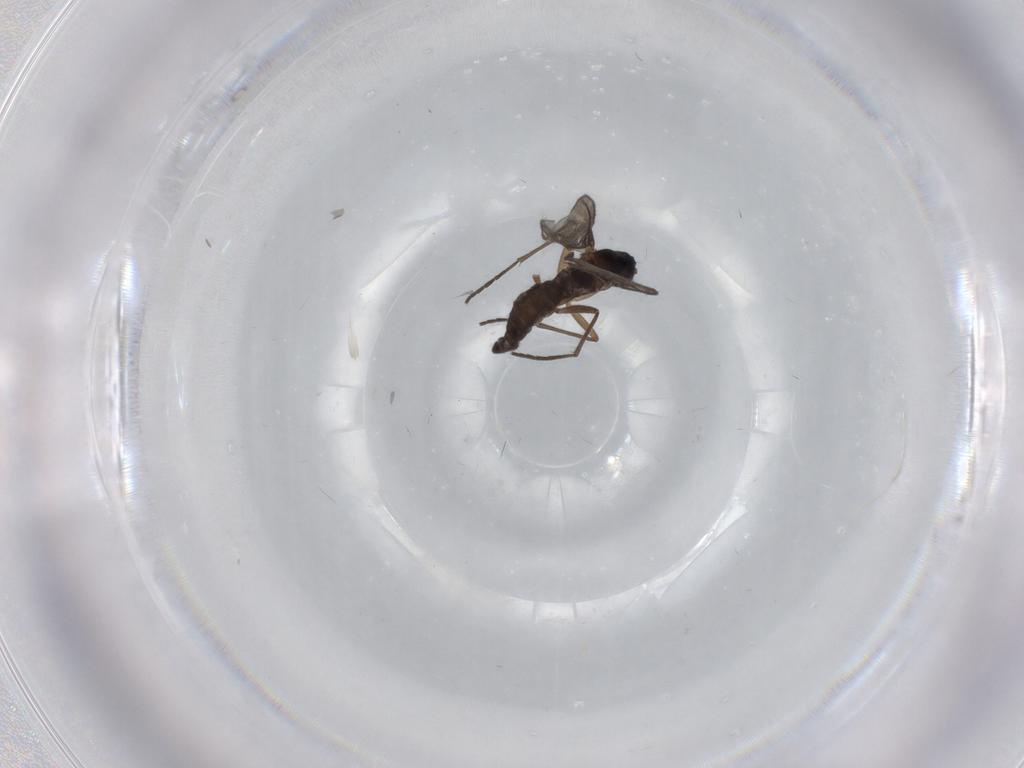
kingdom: Animalia
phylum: Arthropoda
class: Insecta
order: Diptera
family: Sciaridae
